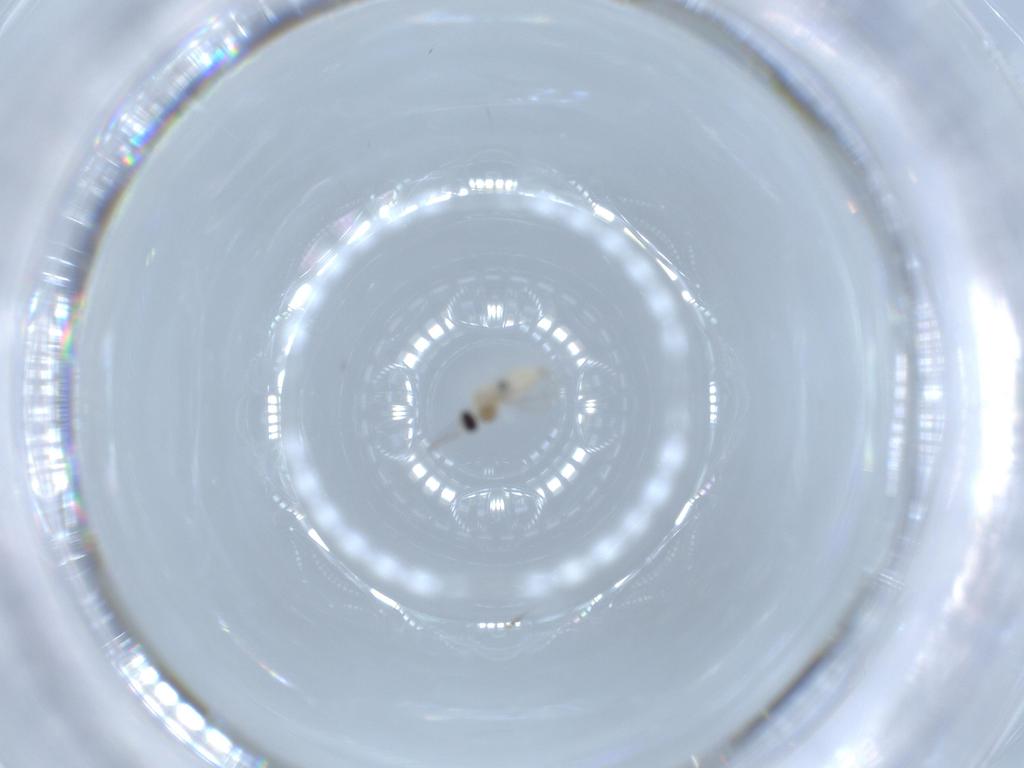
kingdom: Animalia
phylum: Arthropoda
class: Insecta
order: Diptera
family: Cecidomyiidae
